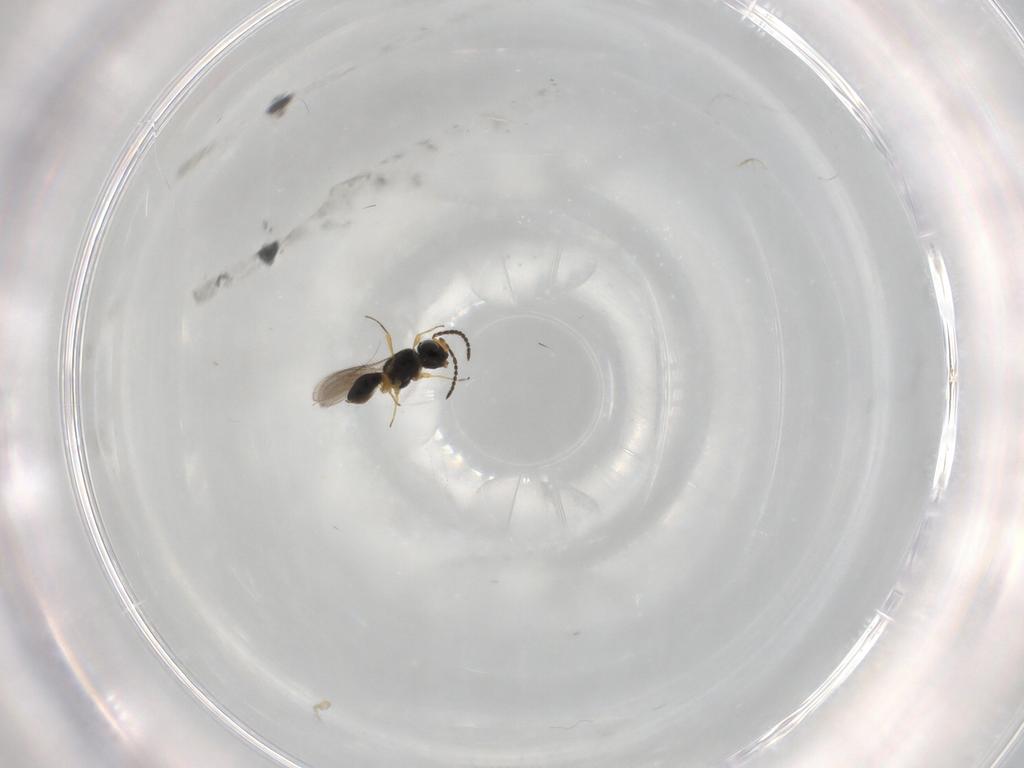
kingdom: Animalia
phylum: Arthropoda
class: Insecta
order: Hymenoptera
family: Scelionidae
